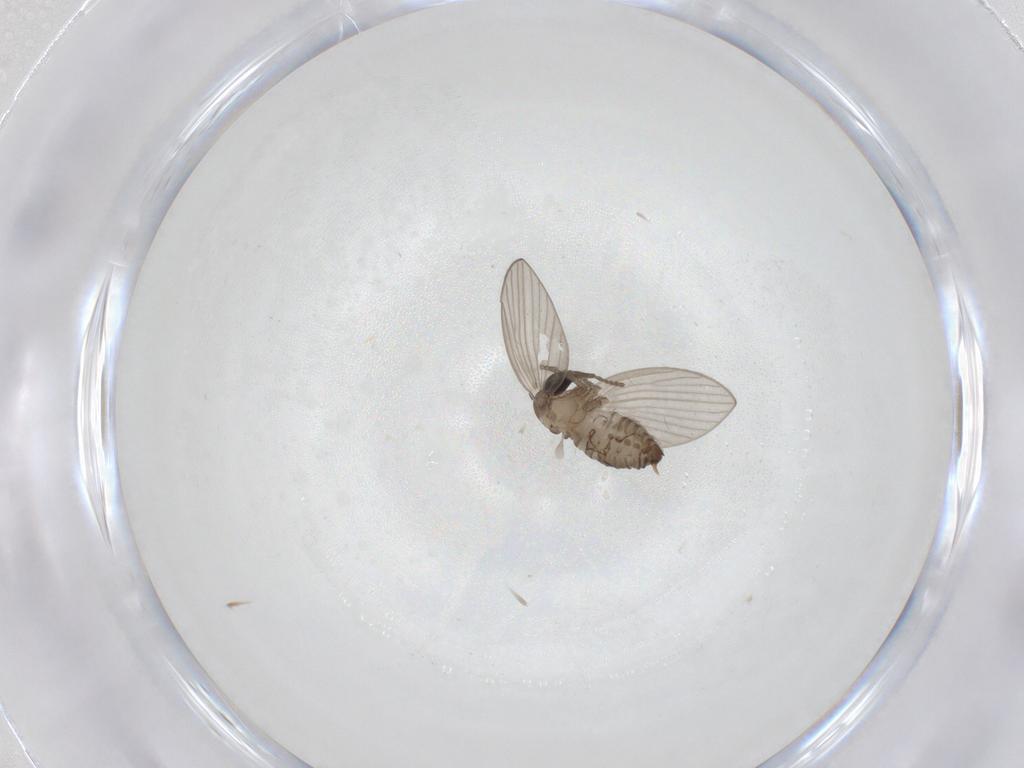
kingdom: Animalia
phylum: Arthropoda
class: Insecta
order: Diptera
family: Psychodidae
